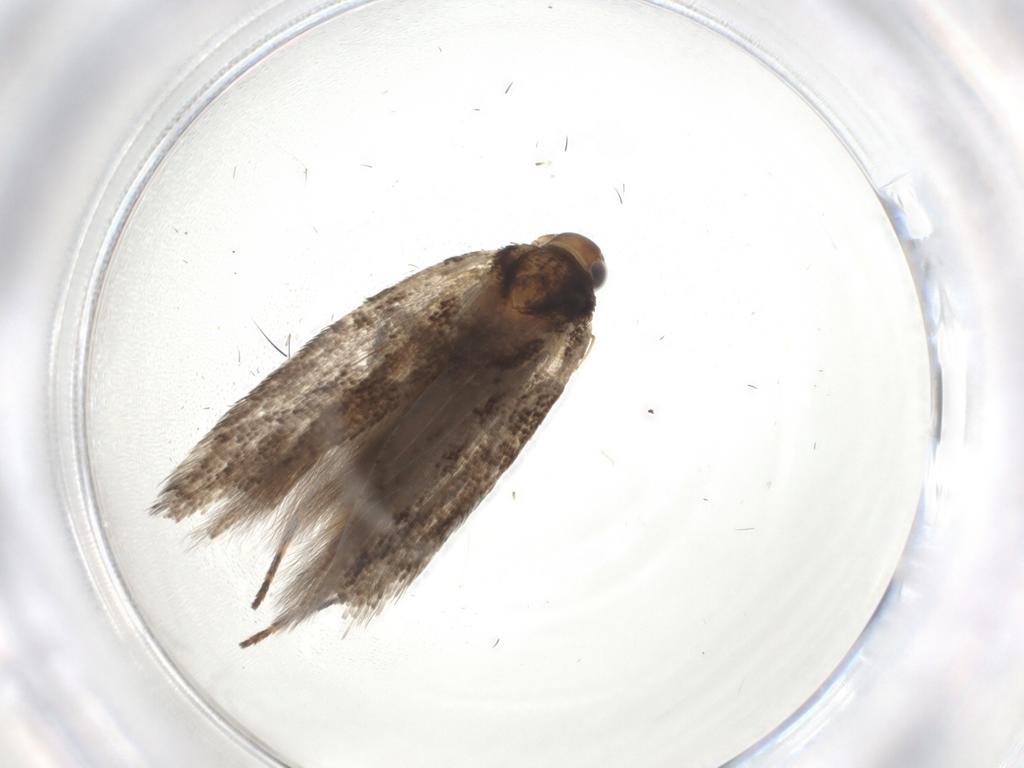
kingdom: Animalia
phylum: Arthropoda
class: Insecta
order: Lepidoptera
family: Gelechiidae
